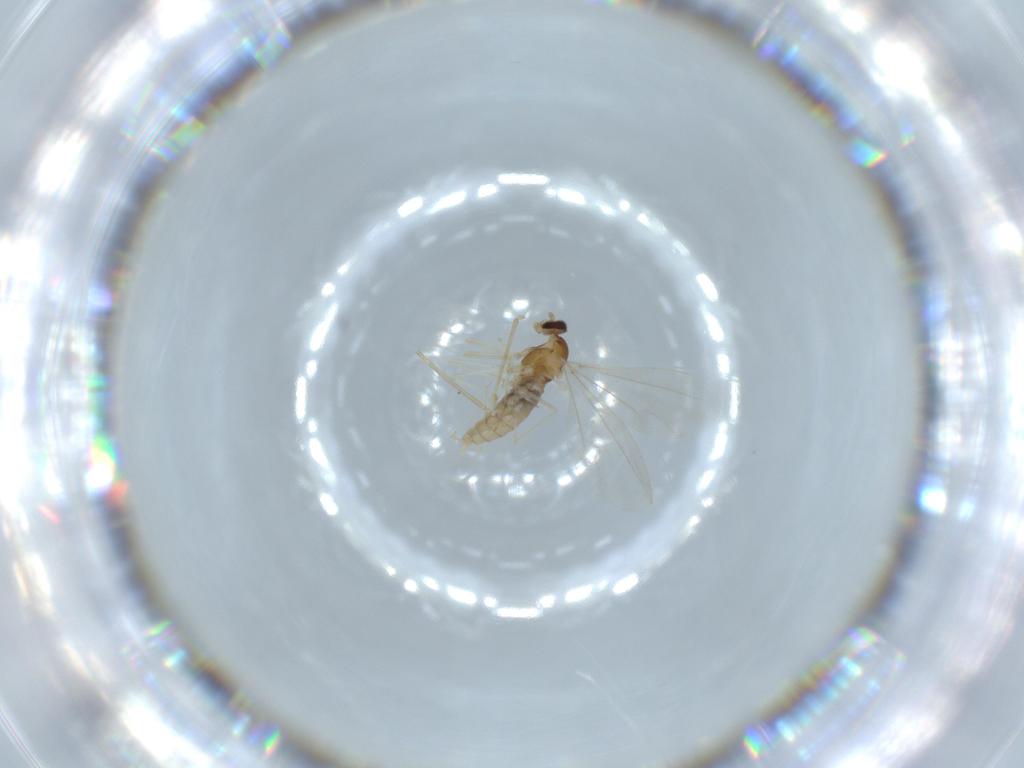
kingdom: Animalia
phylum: Arthropoda
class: Insecta
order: Diptera
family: Cecidomyiidae
